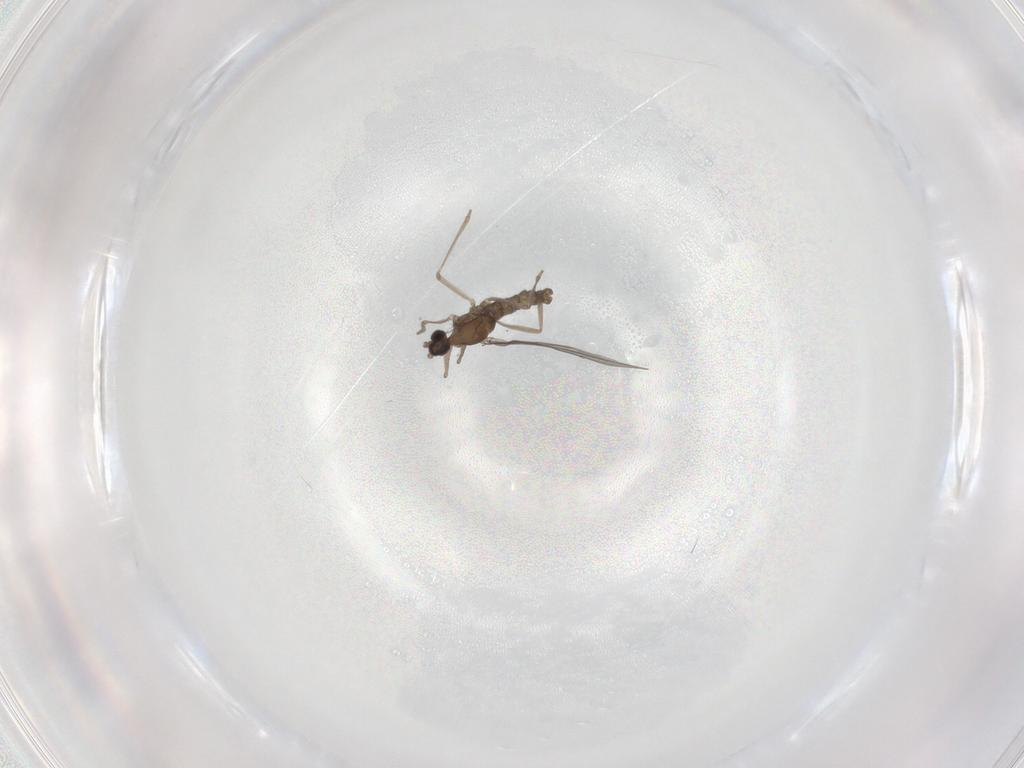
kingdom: Animalia
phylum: Arthropoda
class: Insecta
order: Diptera
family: Cecidomyiidae
